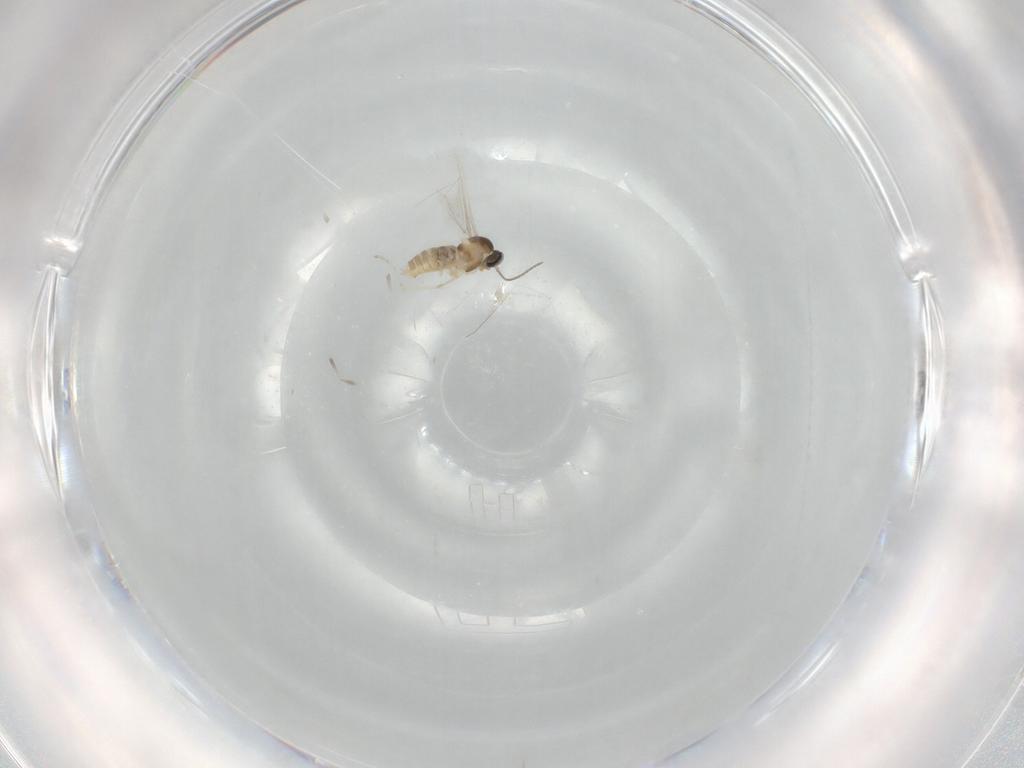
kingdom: Animalia
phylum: Arthropoda
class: Insecta
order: Diptera
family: Cecidomyiidae
